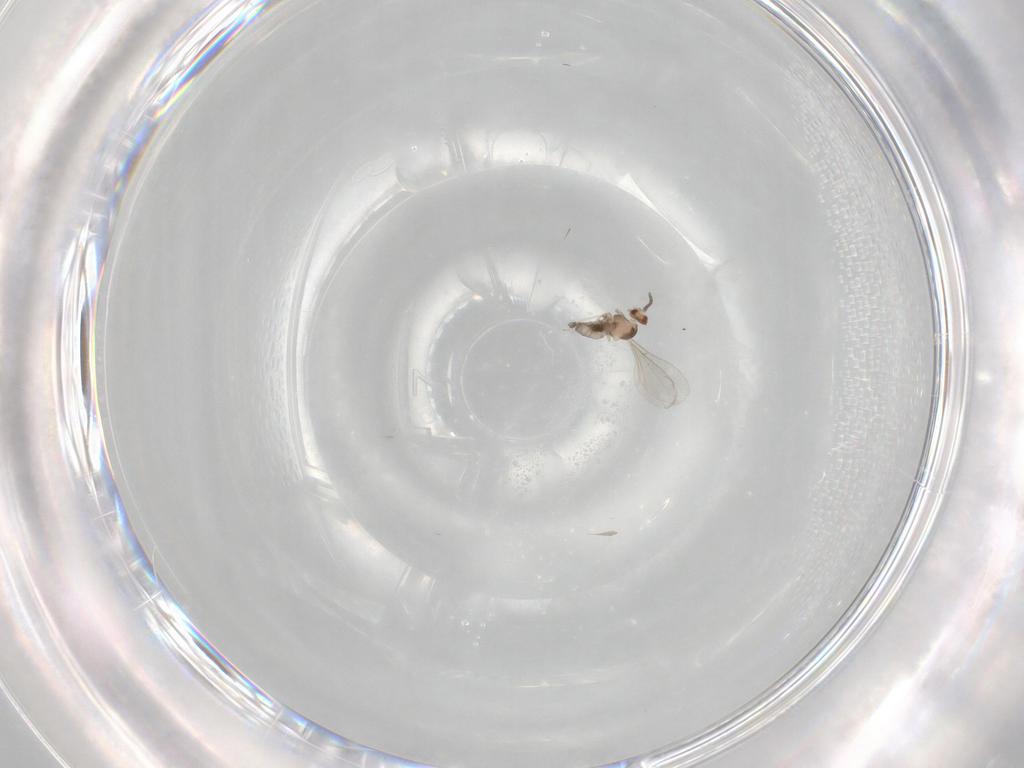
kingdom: Animalia
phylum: Arthropoda
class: Insecta
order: Diptera
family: Cecidomyiidae
